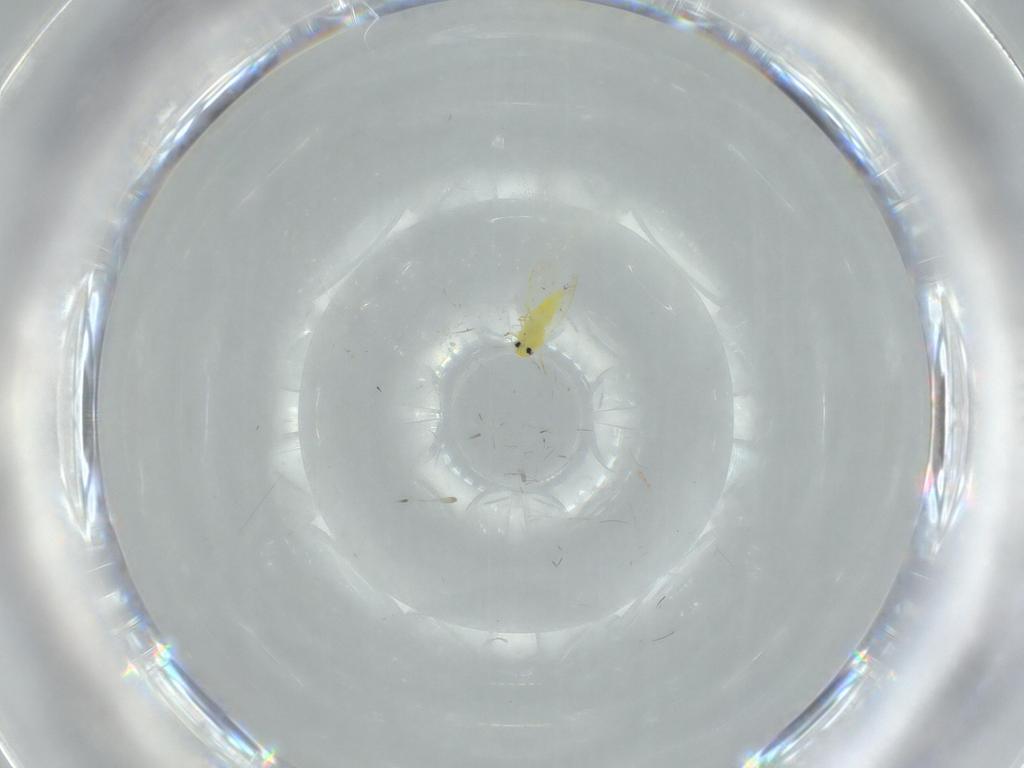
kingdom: Animalia
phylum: Arthropoda
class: Insecta
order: Hemiptera
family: Aleyrodidae
